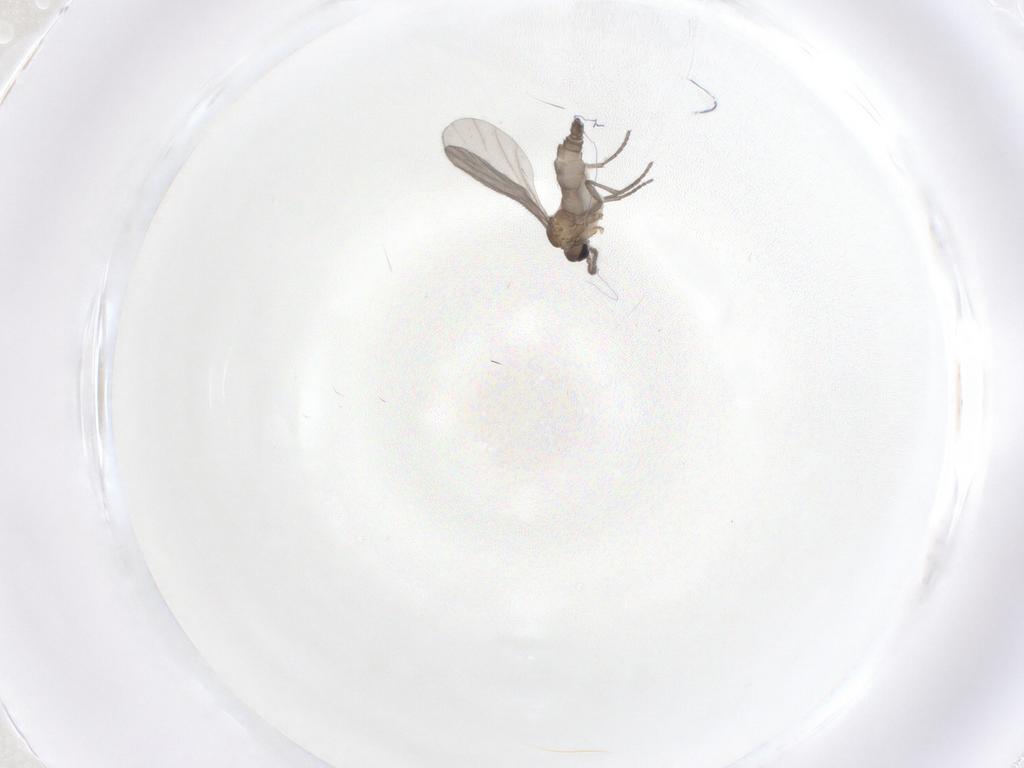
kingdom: Animalia
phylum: Arthropoda
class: Insecta
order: Diptera
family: Sciaridae
